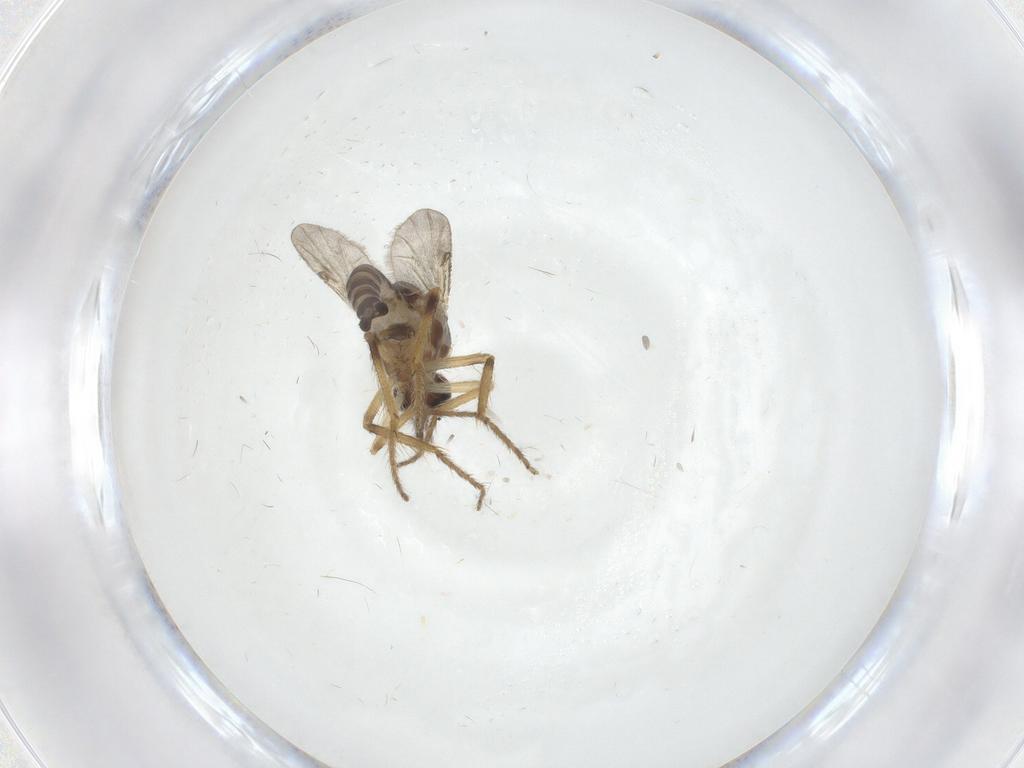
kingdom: Animalia
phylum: Arthropoda
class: Insecta
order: Diptera
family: Ceratopogonidae
